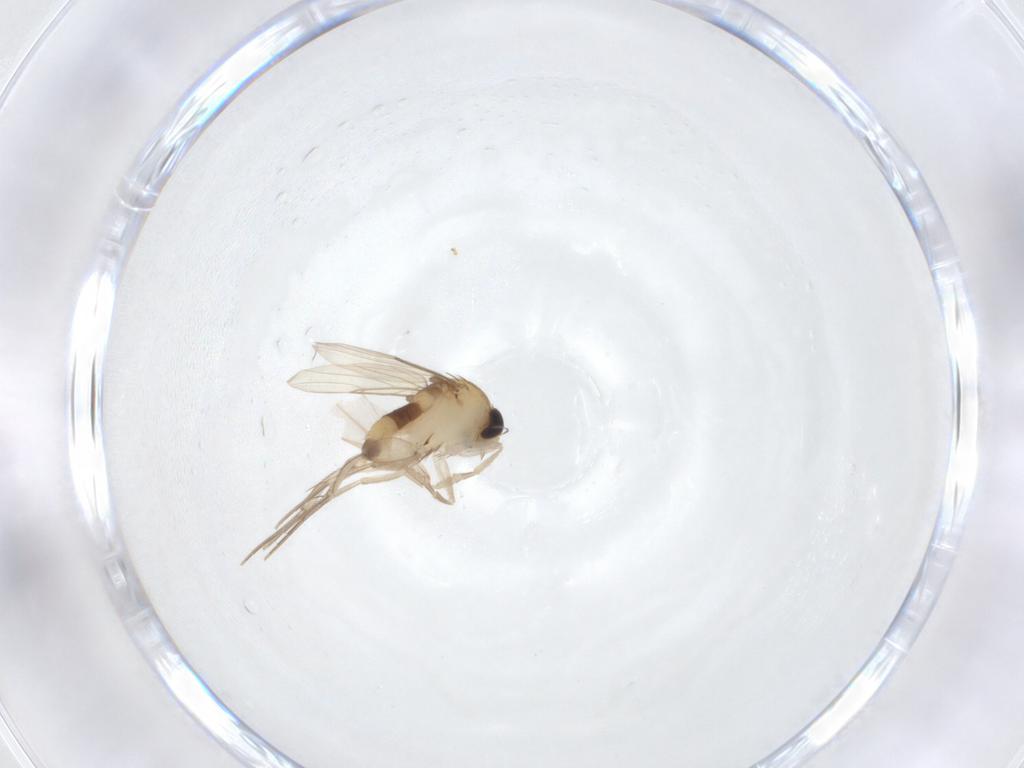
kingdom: Animalia
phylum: Arthropoda
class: Insecta
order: Diptera
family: Phoridae
